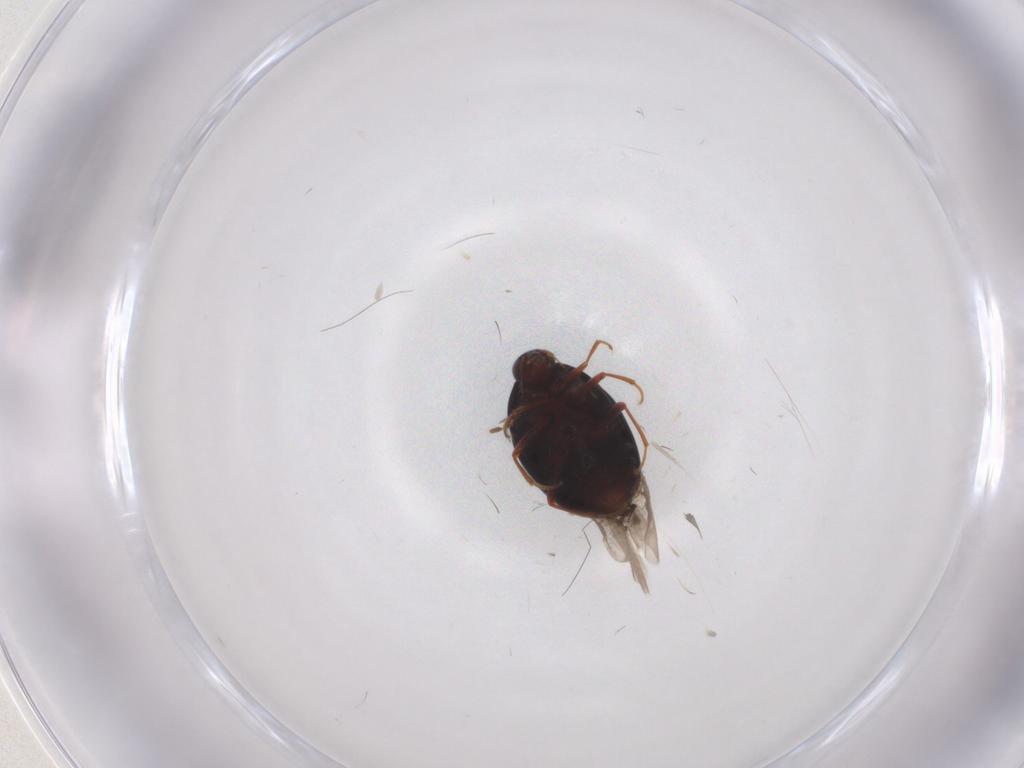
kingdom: Animalia
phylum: Arthropoda
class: Insecta
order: Coleoptera
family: Staphylinidae
